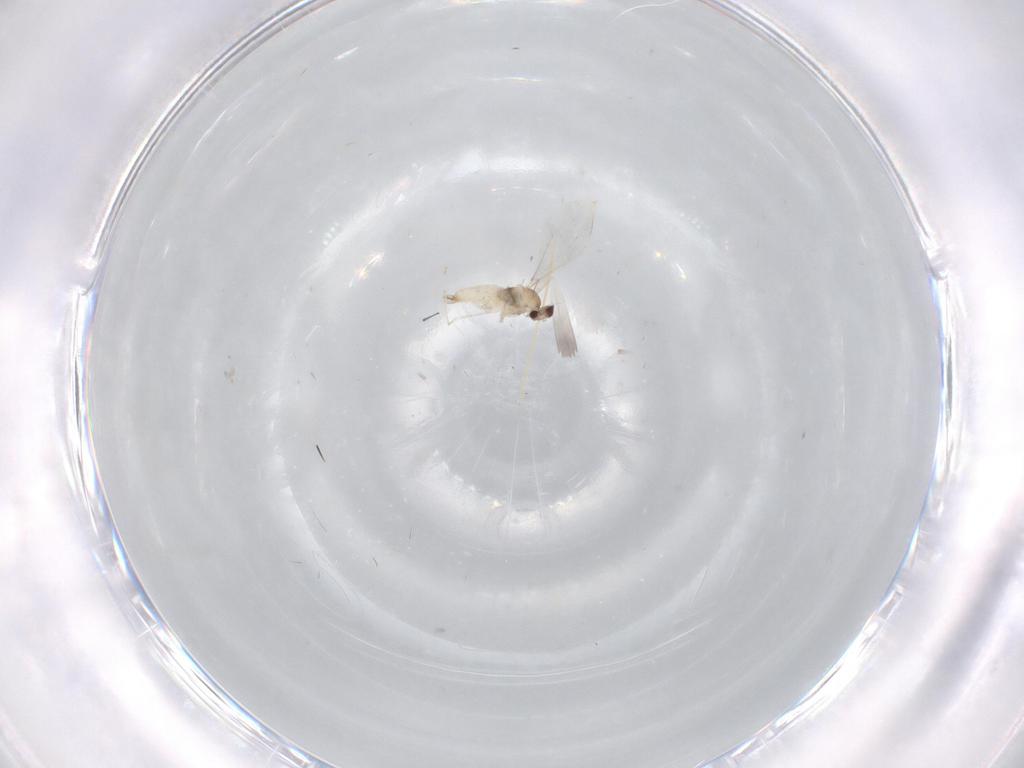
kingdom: Animalia
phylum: Arthropoda
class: Insecta
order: Diptera
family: Cecidomyiidae
